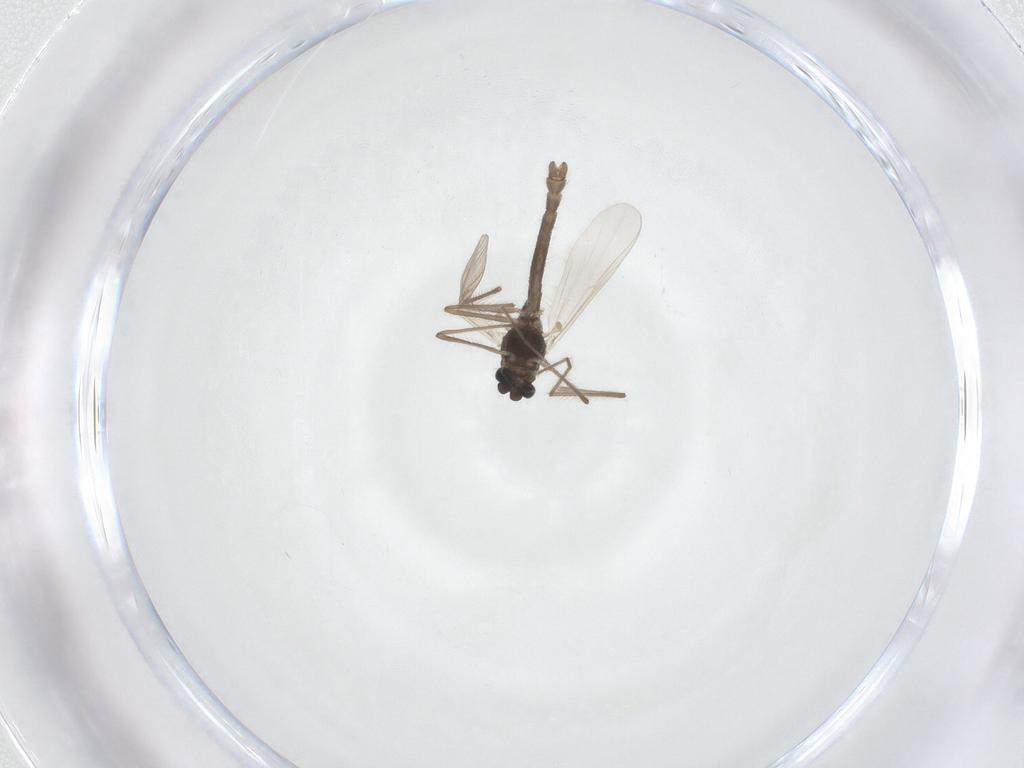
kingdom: Animalia
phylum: Arthropoda
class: Insecta
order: Diptera
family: Chironomidae
